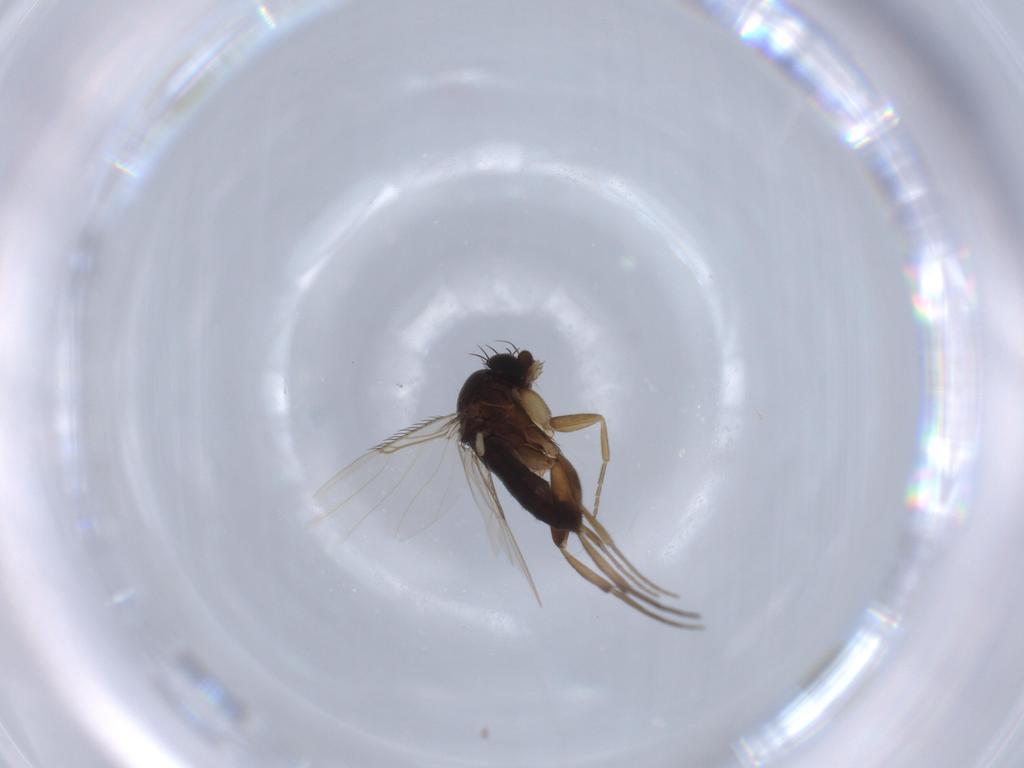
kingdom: Animalia
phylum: Arthropoda
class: Insecta
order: Diptera
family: Phoridae
